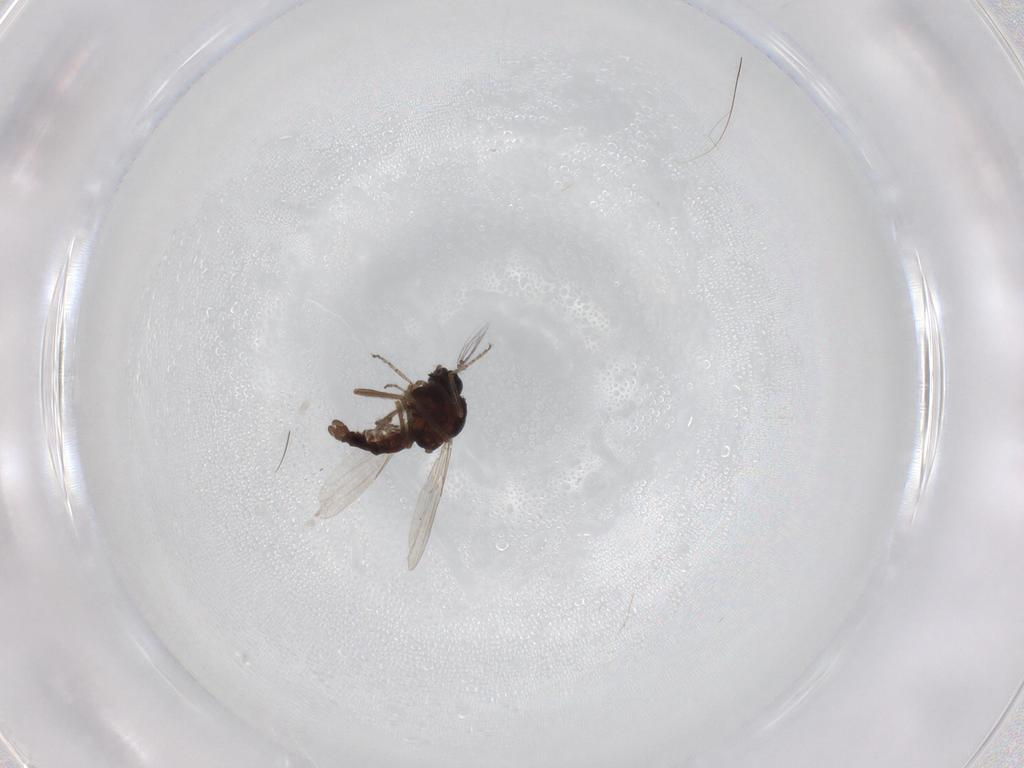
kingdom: Animalia
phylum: Arthropoda
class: Insecta
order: Diptera
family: Ceratopogonidae
